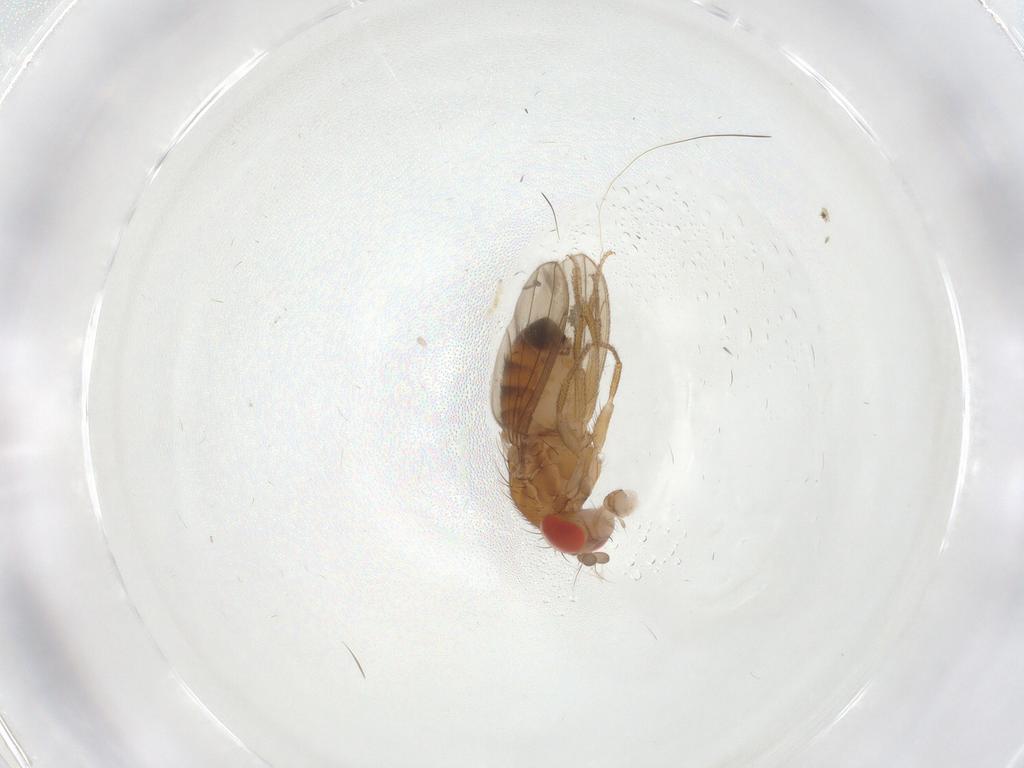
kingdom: Animalia
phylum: Arthropoda
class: Insecta
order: Diptera
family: Drosophilidae
